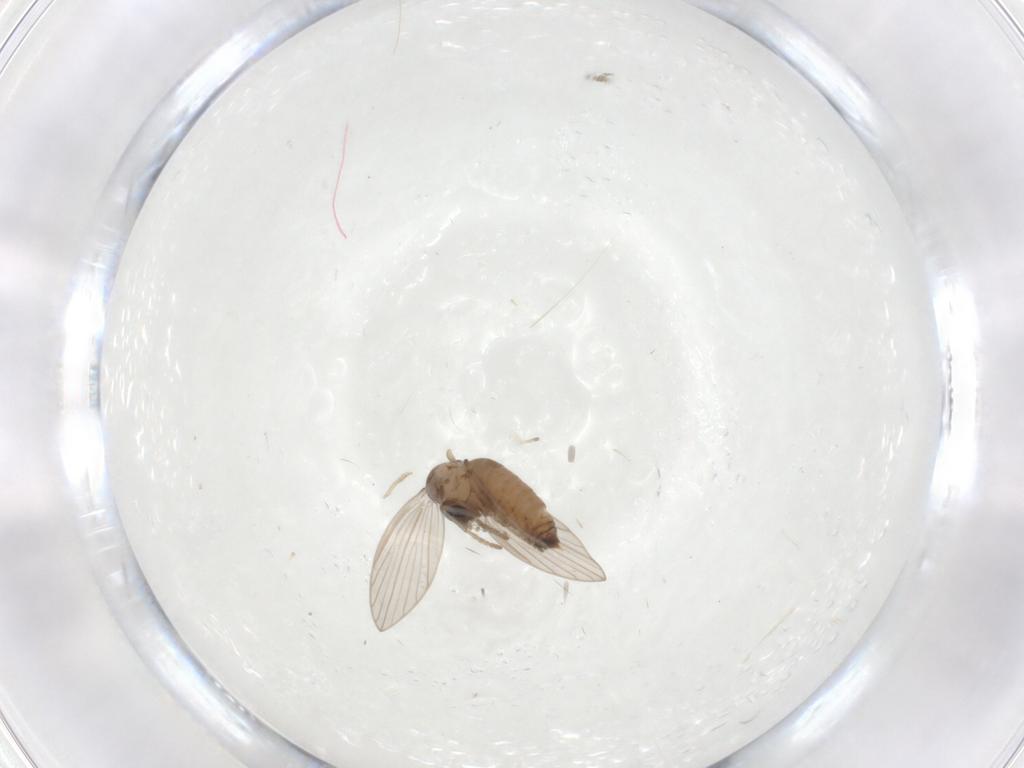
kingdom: Animalia
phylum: Arthropoda
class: Insecta
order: Diptera
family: Psychodidae
